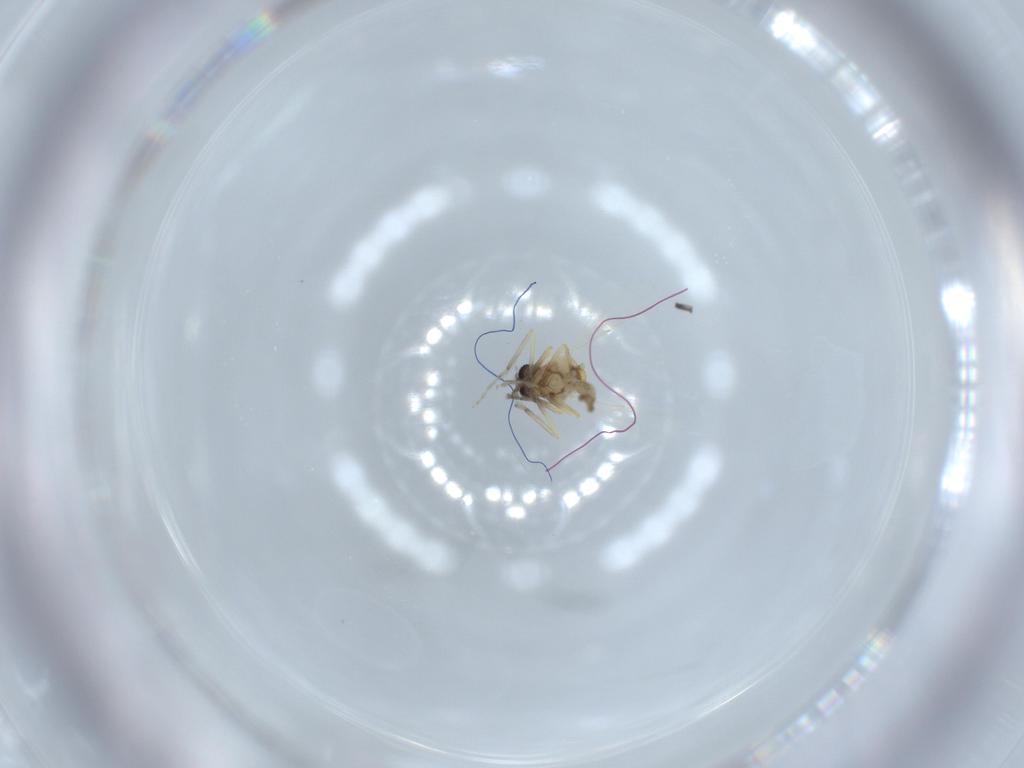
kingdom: Animalia
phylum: Arthropoda
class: Insecta
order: Diptera
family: Ceratopogonidae
